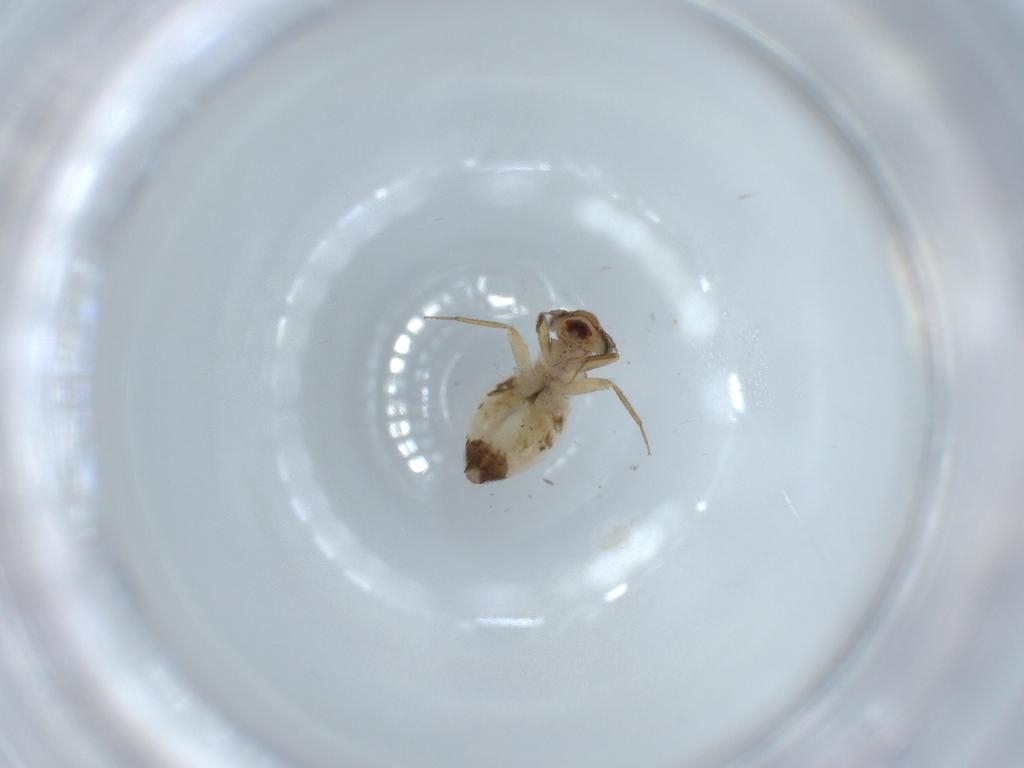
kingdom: Animalia
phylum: Arthropoda
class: Insecta
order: Psocodea
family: Lepidopsocidae
